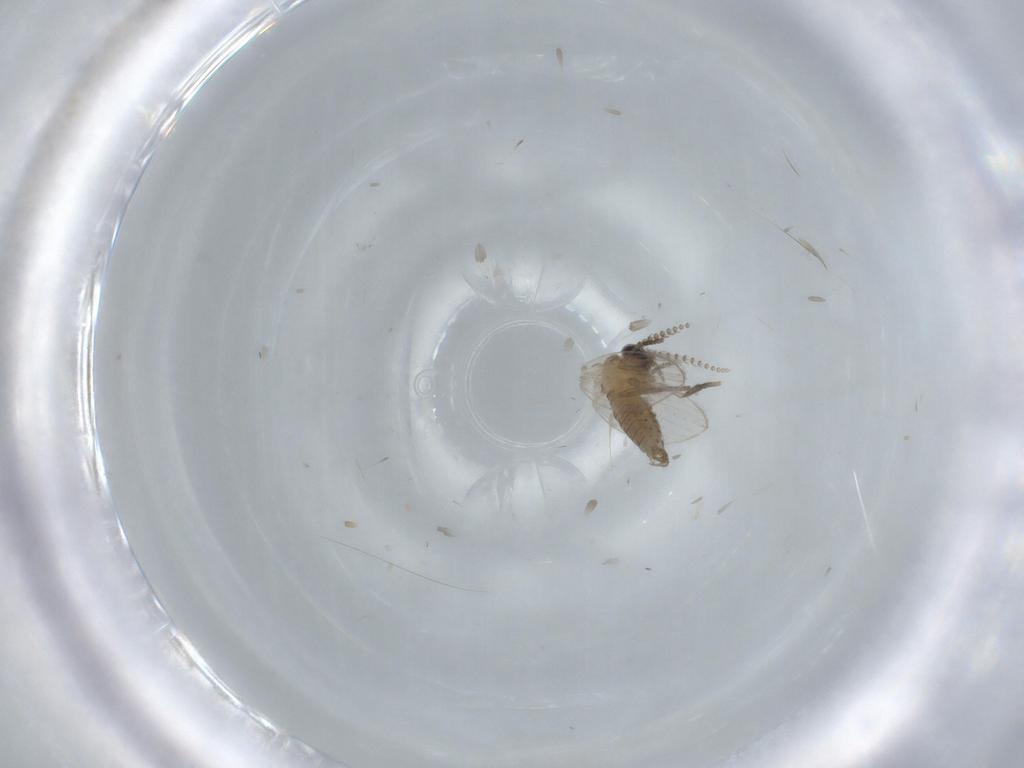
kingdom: Animalia
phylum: Arthropoda
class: Insecta
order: Diptera
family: Psychodidae
